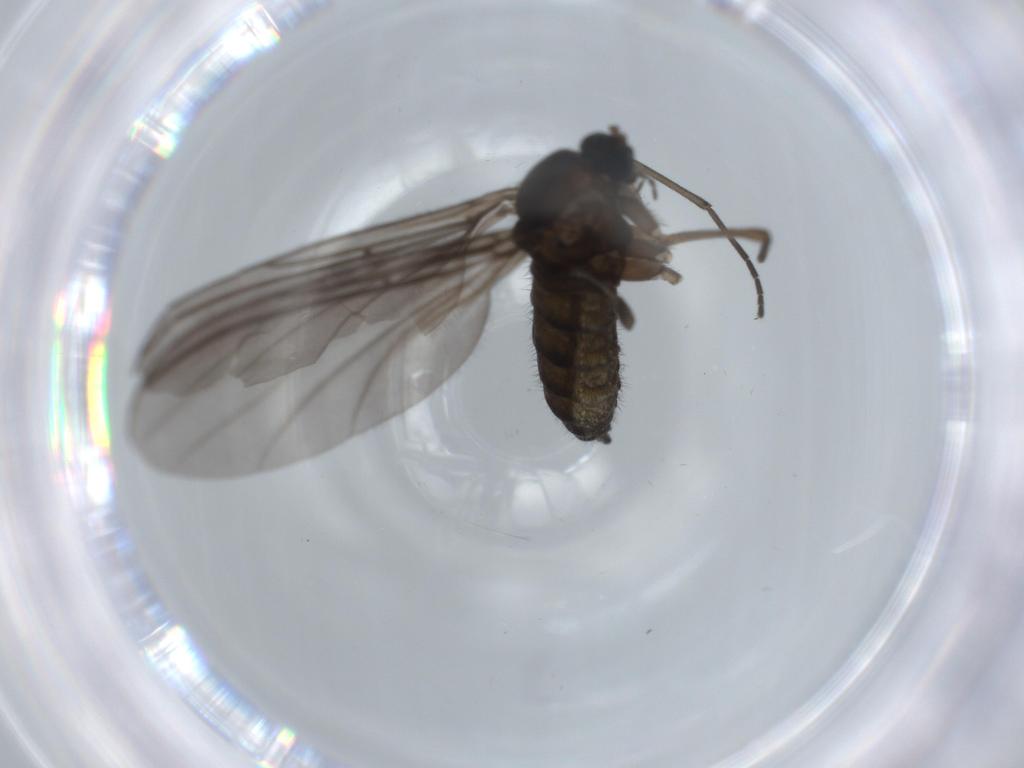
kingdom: Animalia
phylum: Arthropoda
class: Insecta
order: Diptera
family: Sciaridae
